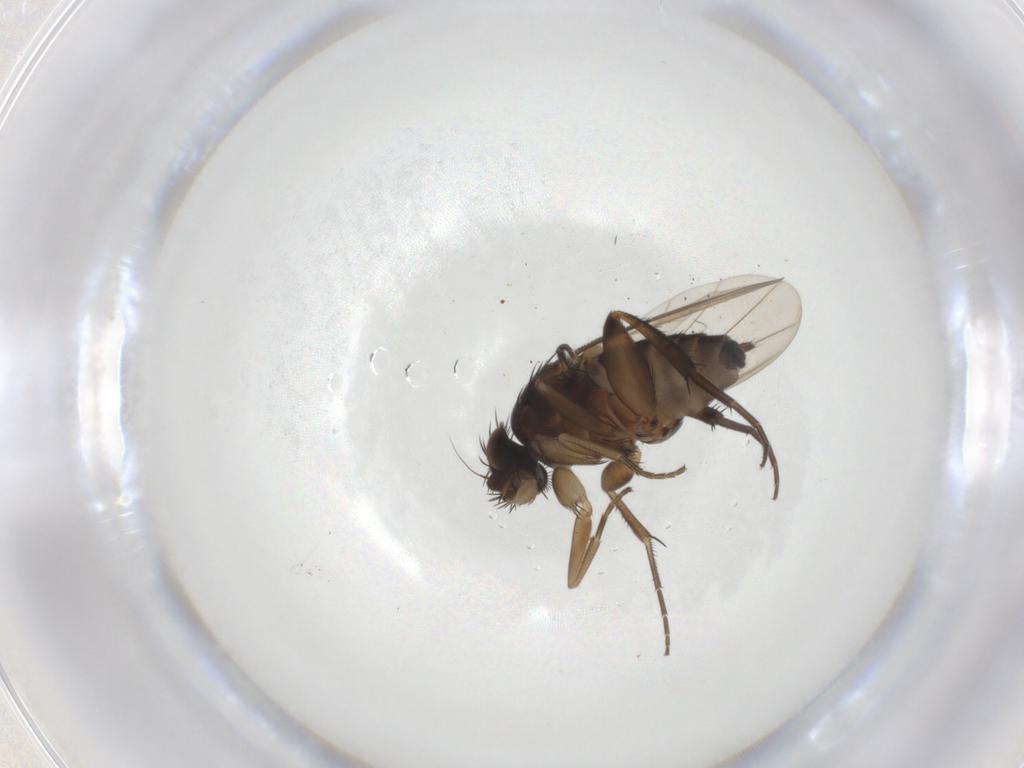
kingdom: Animalia
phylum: Arthropoda
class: Insecta
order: Diptera
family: Phoridae
